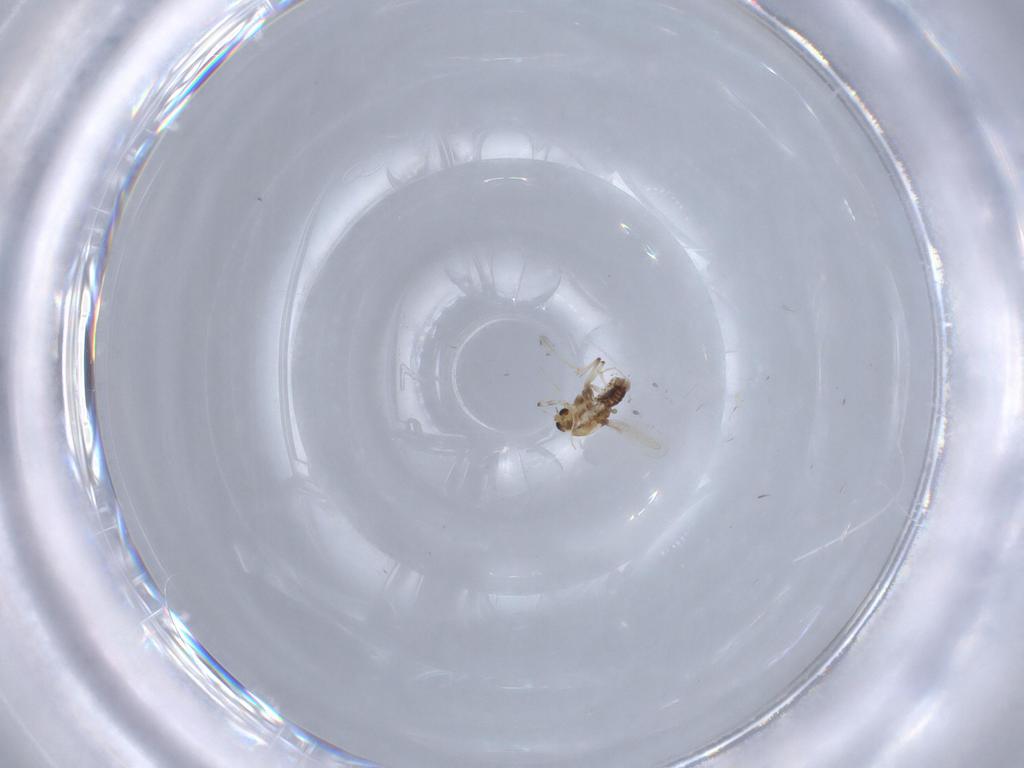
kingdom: Animalia
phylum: Arthropoda
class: Insecta
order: Diptera
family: Chironomidae
